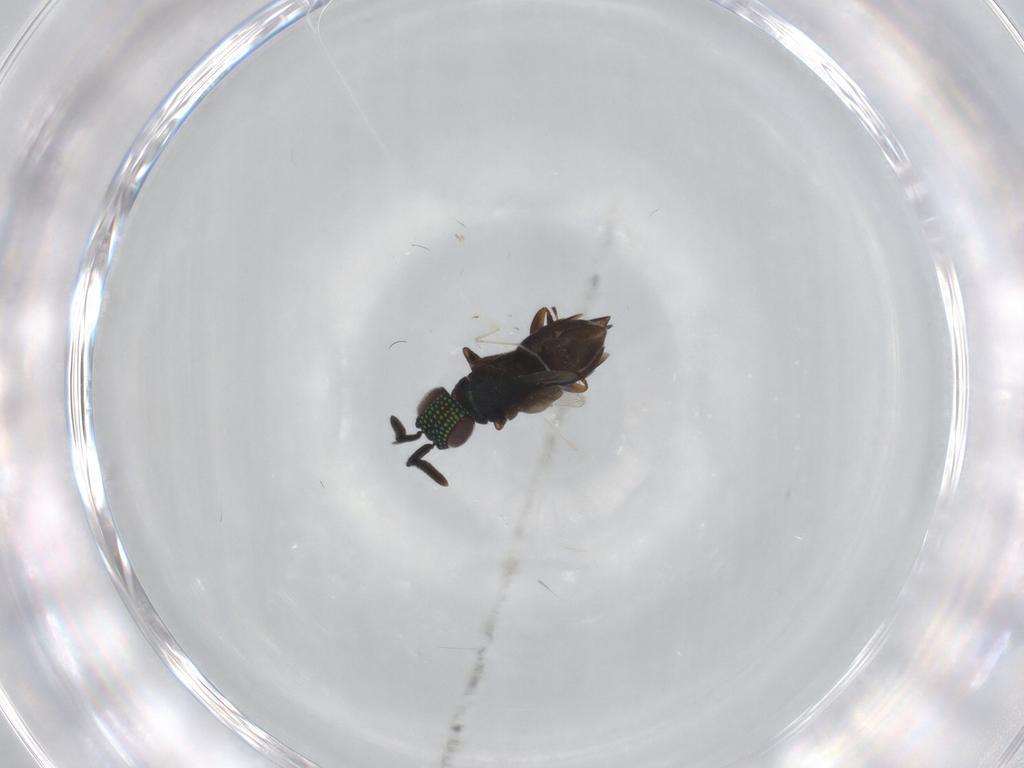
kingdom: Animalia
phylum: Arthropoda
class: Insecta
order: Hymenoptera
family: Encyrtidae
